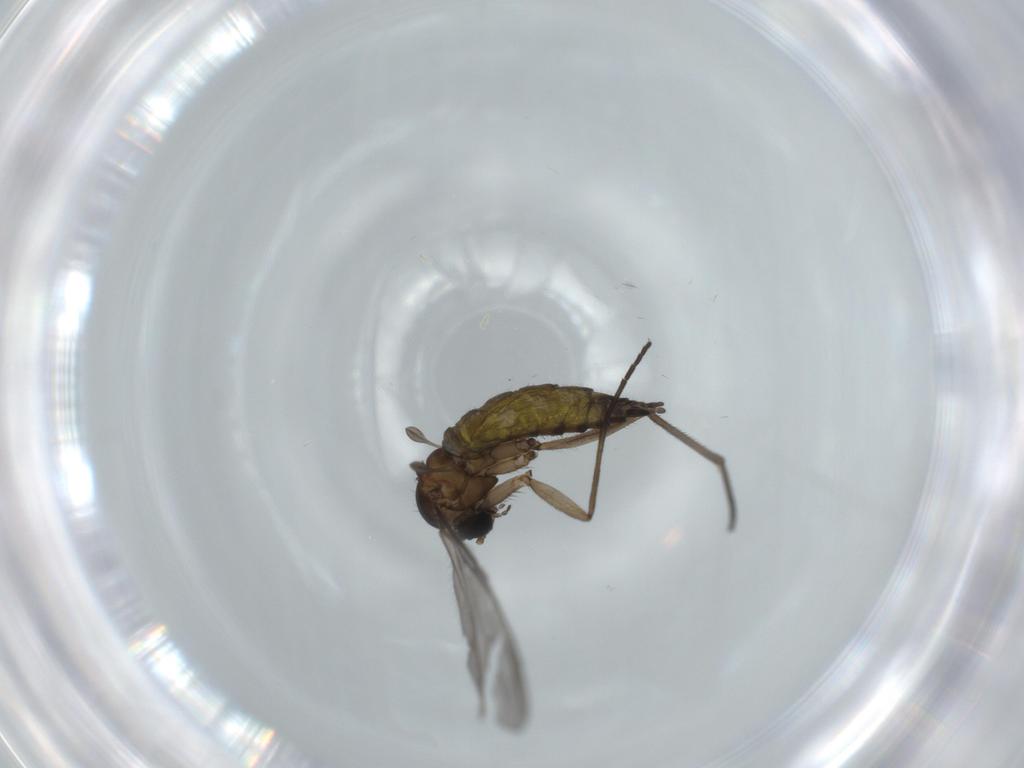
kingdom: Animalia
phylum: Arthropoda
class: Insecta
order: Diptera
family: Sciaridae
